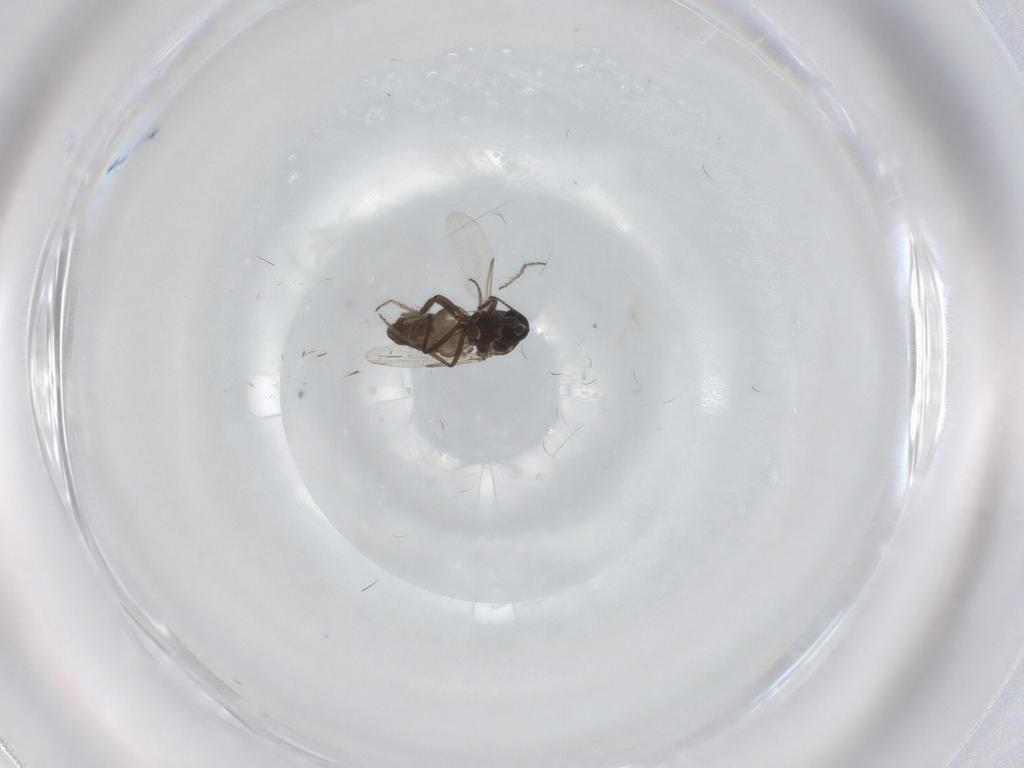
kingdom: Animalia
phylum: Arthropoda
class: Insecta
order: Diptera
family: Ceratopogonidae
